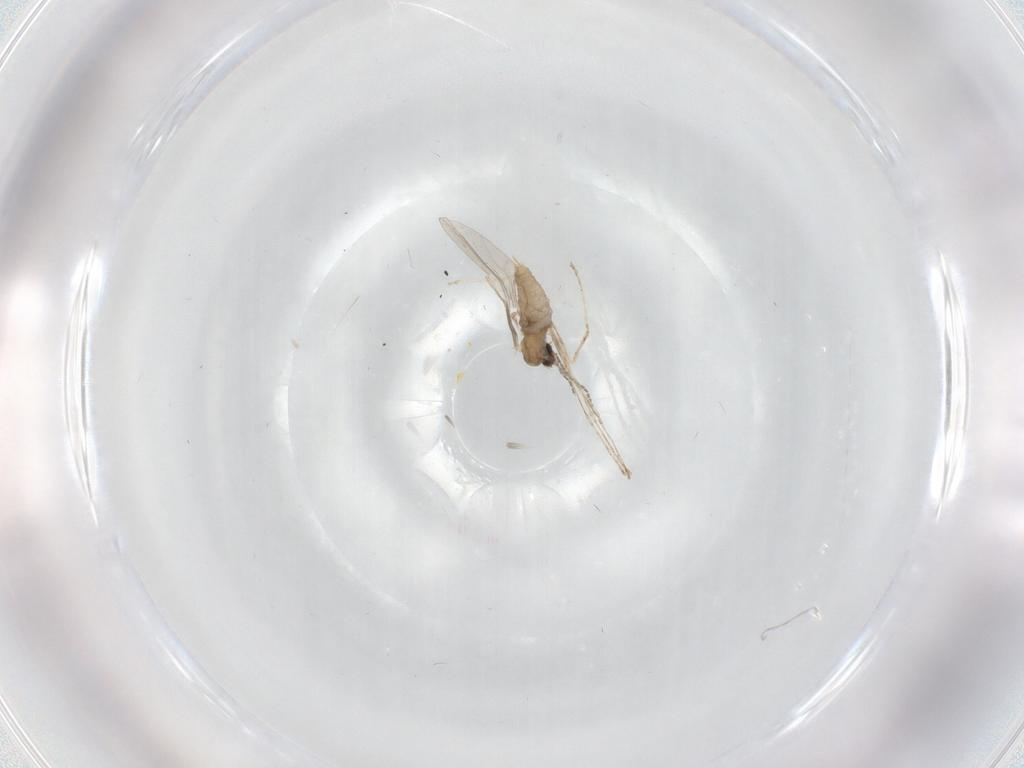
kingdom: Animalia
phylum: Arthropoda
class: Insecta
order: Diptera
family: Cecidomyiidae
